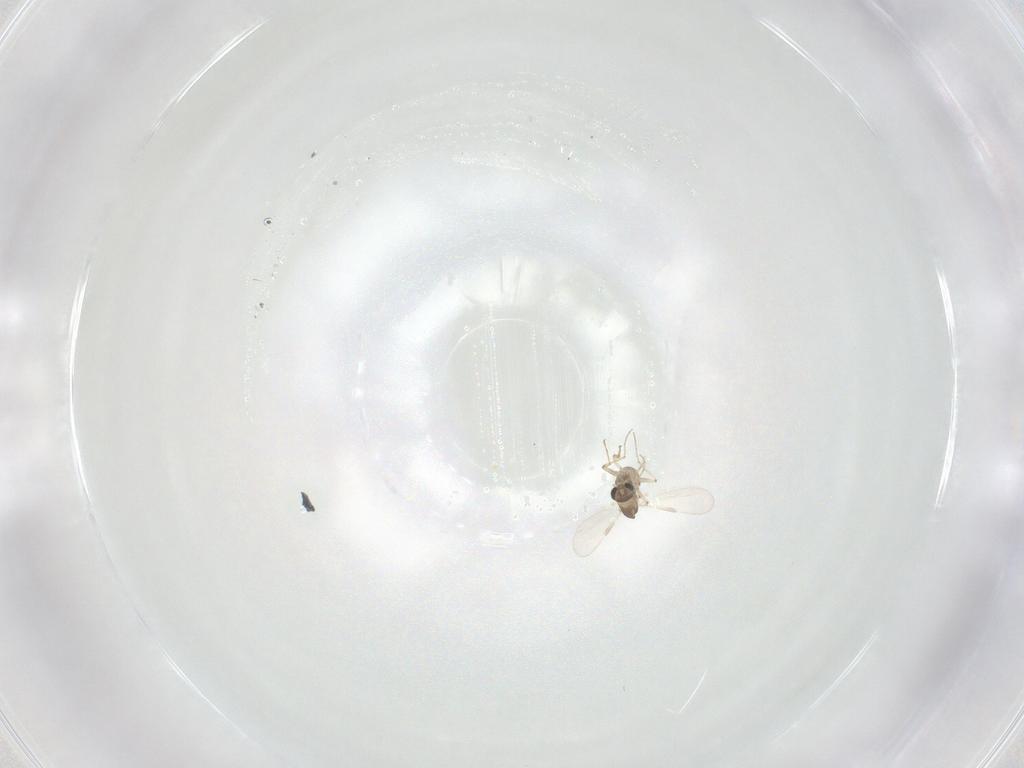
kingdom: Animalia
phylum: Arthropoda
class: Insecta
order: Diptera
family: Chironomidae
